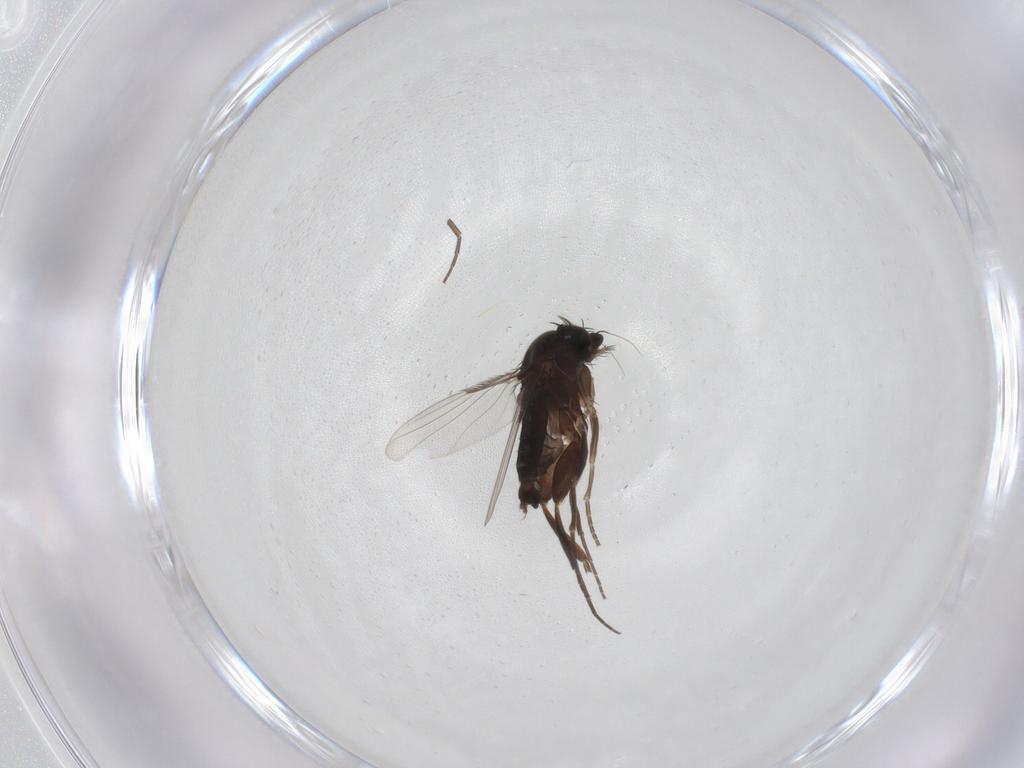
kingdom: Animalia
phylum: Arthropoda
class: Insecta
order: Diptera
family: Phoridae
